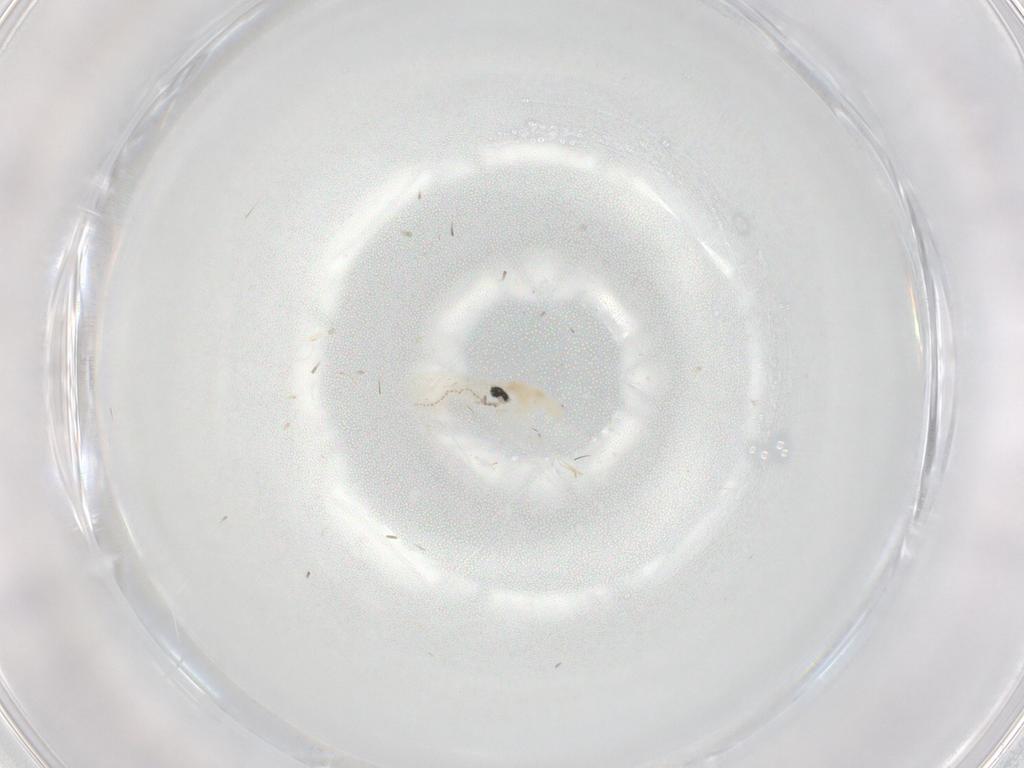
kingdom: Animalia
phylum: Arthropoda
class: Insecta
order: Diptera
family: Cecidomyiidae
